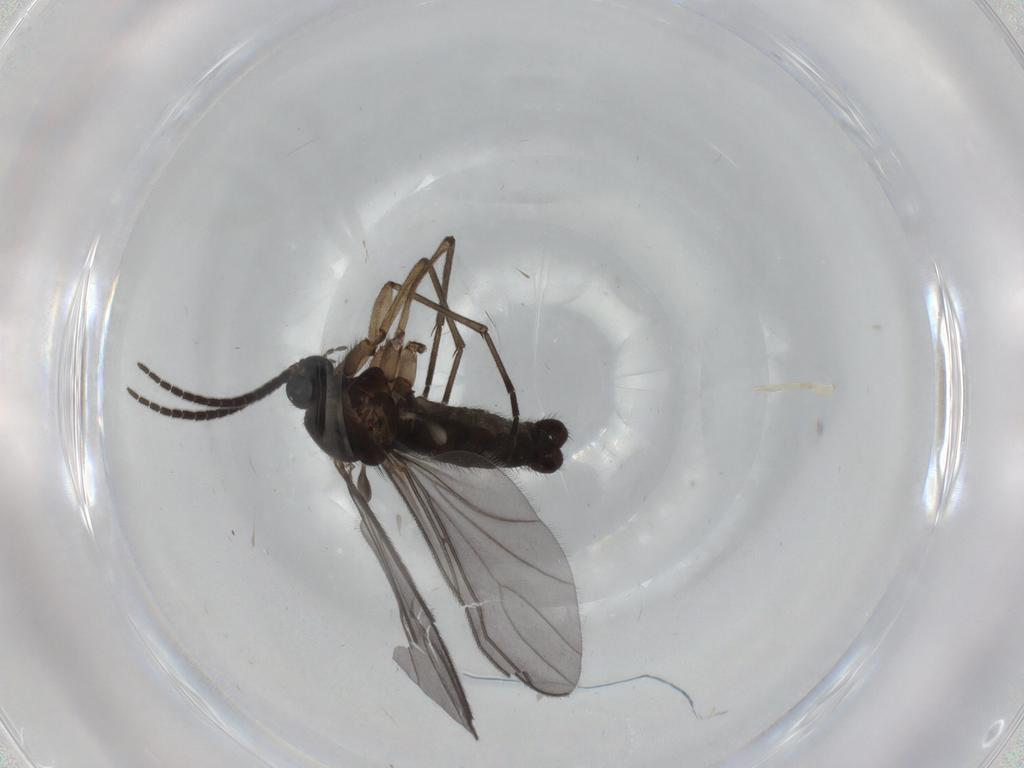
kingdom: Animalia
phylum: Arthropoda
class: Insecta
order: Diptera
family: Sciaridae
